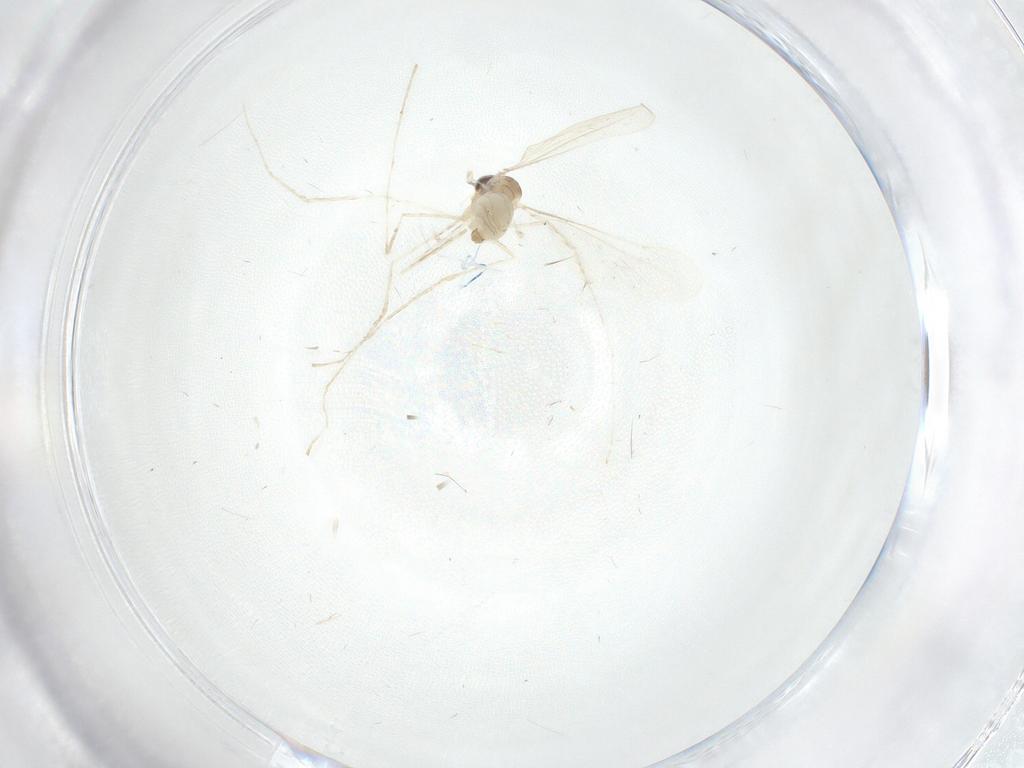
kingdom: Animalia
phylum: Arthropoda
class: Insecta
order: Diptera
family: Cecidomyiidae
